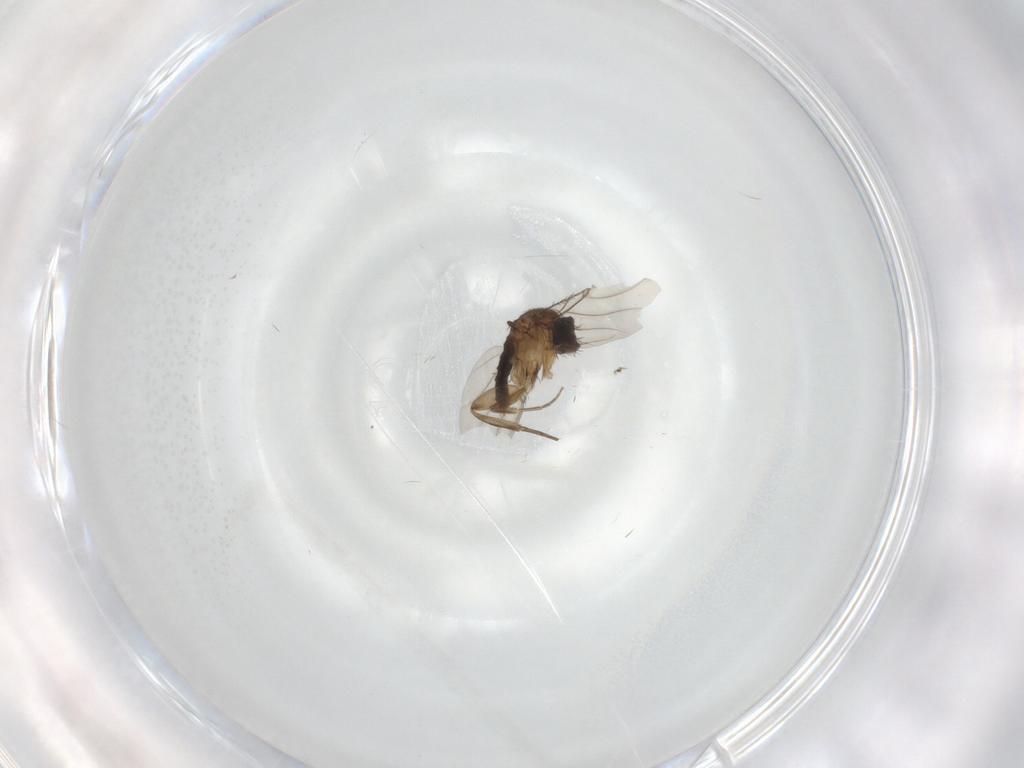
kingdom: Animalia
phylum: Arthropoda
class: Insecta
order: Diptera
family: Phoridae
